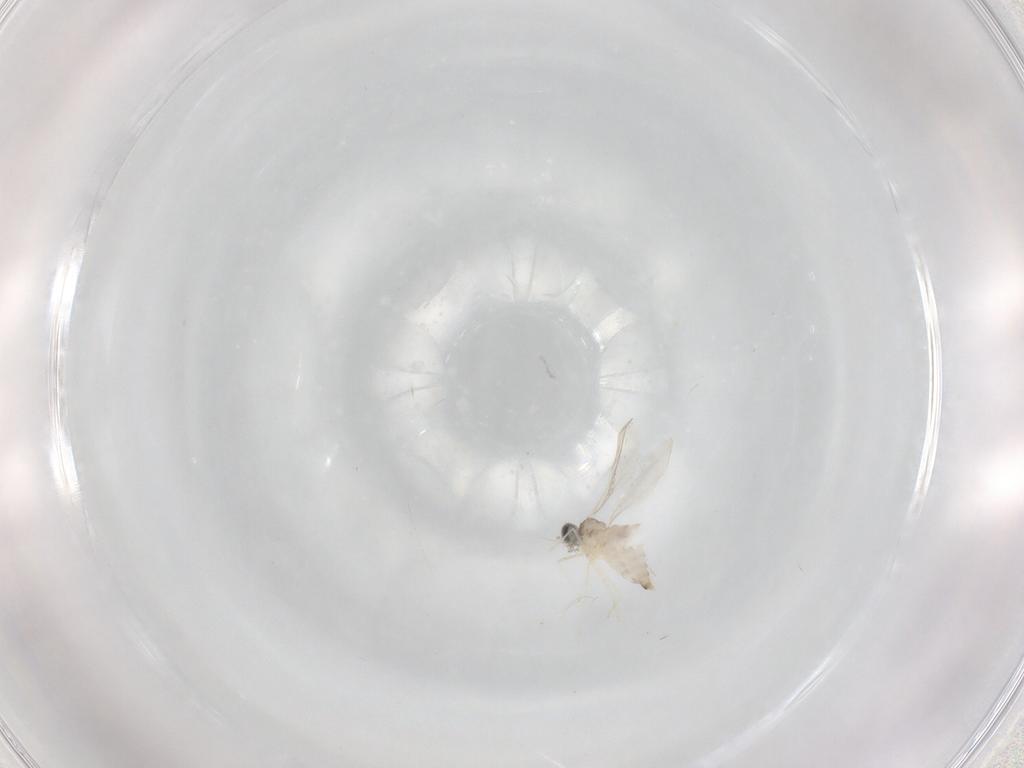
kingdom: Animalia
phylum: Arthropoda
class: Insecta
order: Diptera
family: Cecidomyiidae
